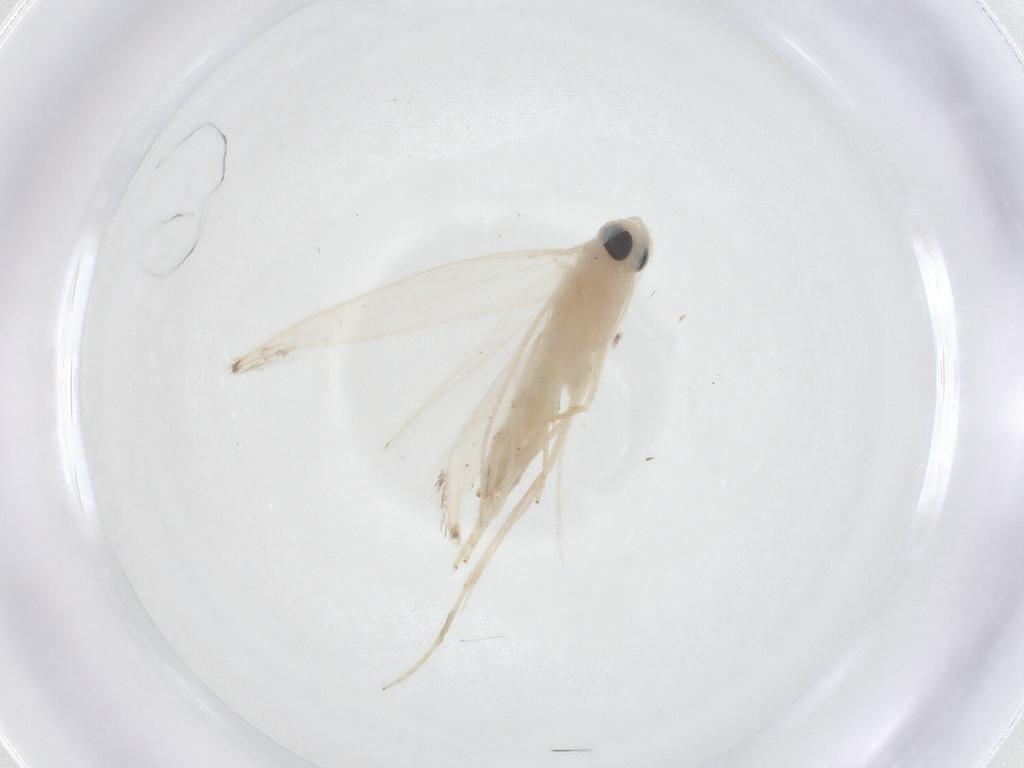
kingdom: Animalia
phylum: Arthropoda
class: Insecta
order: Lepidoptera
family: Stathmopodidae
